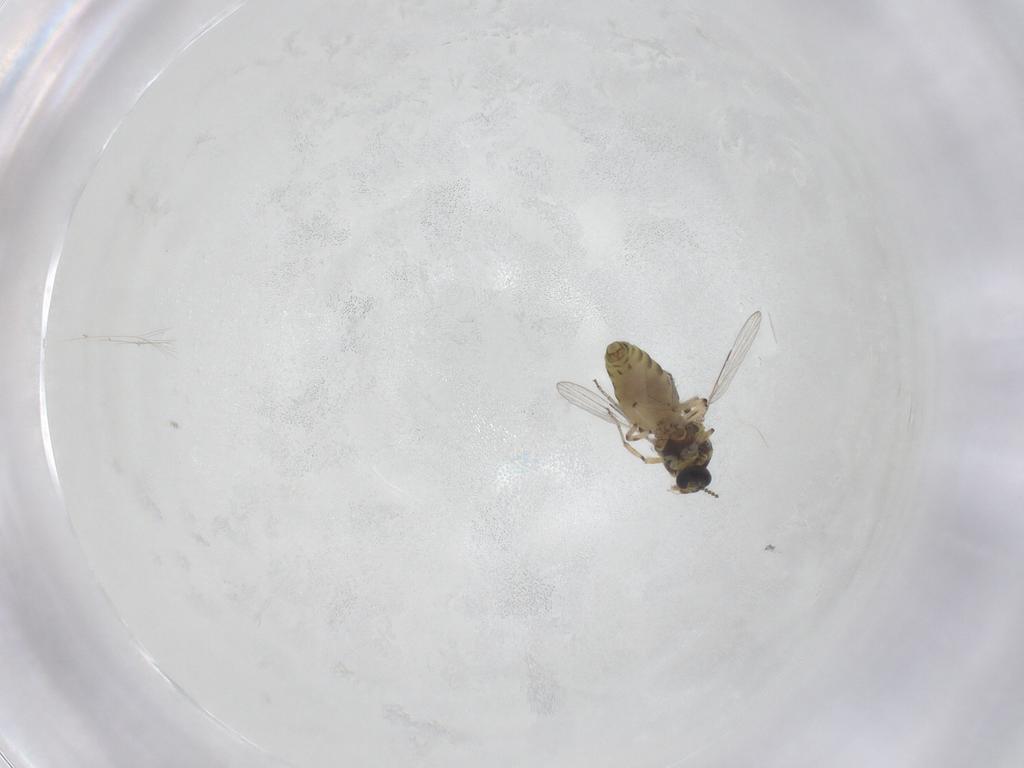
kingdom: Animalia
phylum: Arthropoda
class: Insecta
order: Diptera
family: Ceratopogonidae
